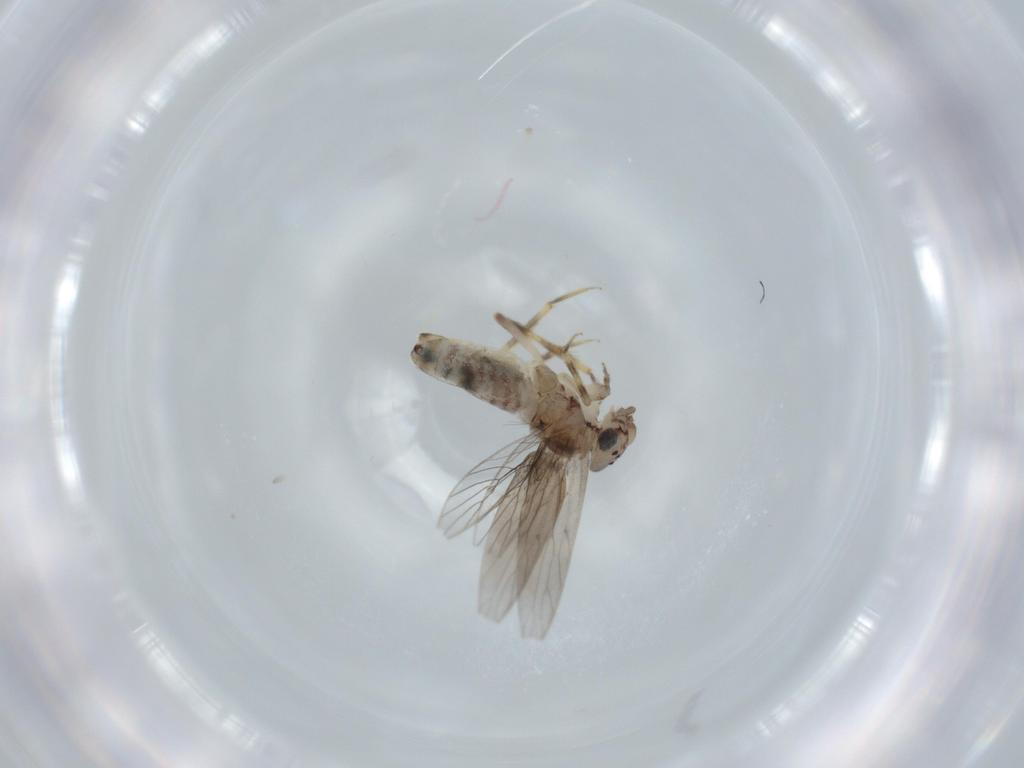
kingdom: Animalia
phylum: Arthropoda
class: Insecta
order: Psocodea
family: Lepidopsocidae
